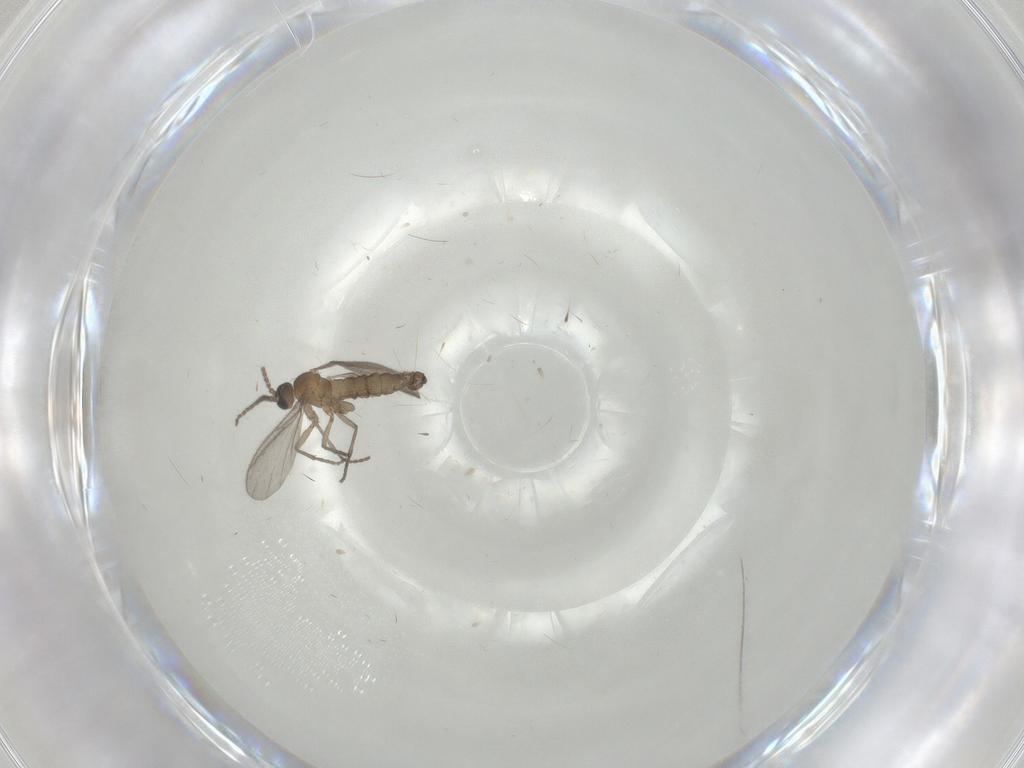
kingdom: Animalia
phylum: Arthropoda
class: Insecta
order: Diptera
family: Sciaridae
